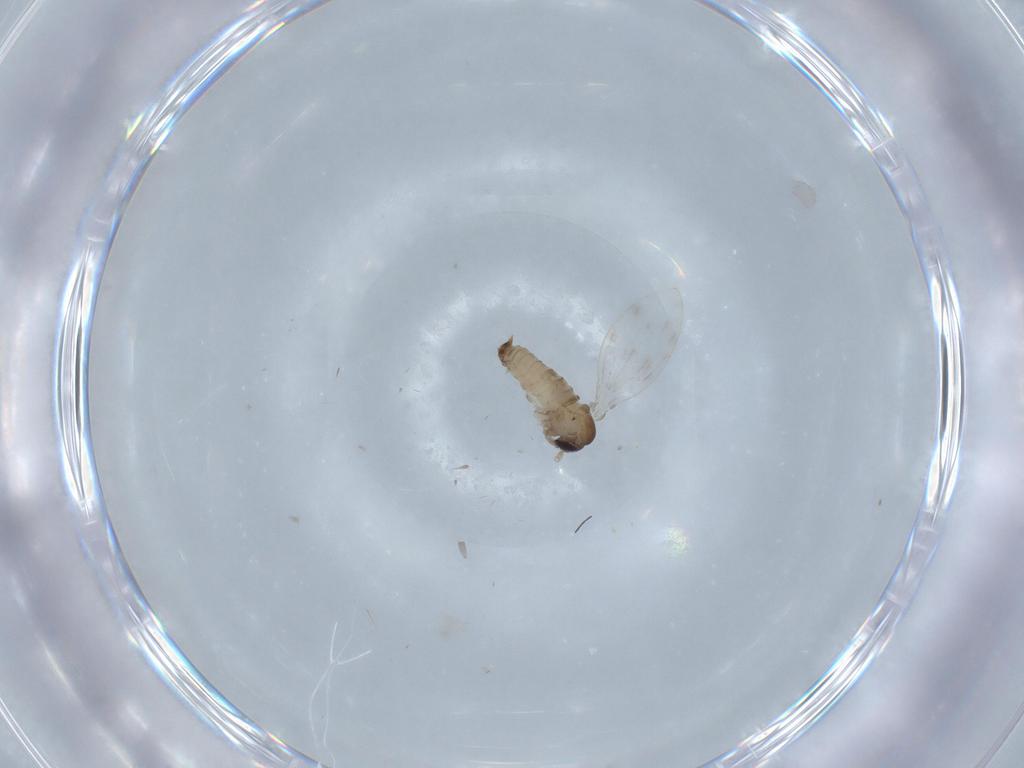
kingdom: Animalia
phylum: Arthropoda
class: Insecta
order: Diptera
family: Psychodidae
